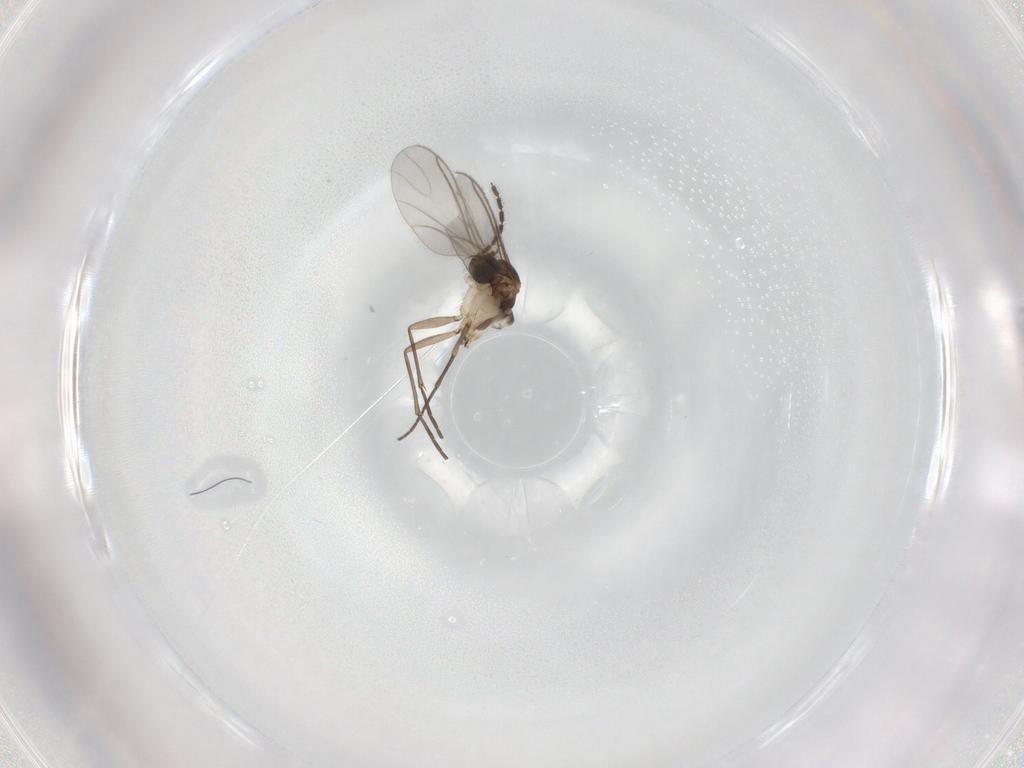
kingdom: Animalia
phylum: Arthropoda
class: Insecta
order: Diptera
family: Sciaridae
